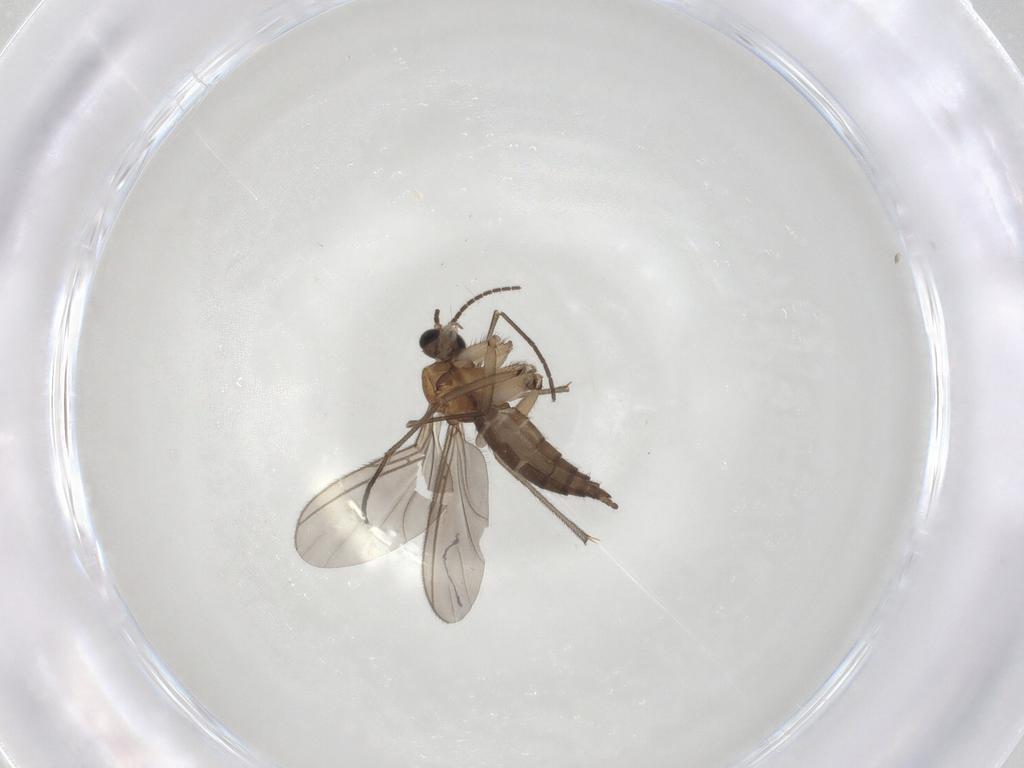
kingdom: Animalia
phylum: Arthropoda
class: Insecta
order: Diptera
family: Sciaridae
